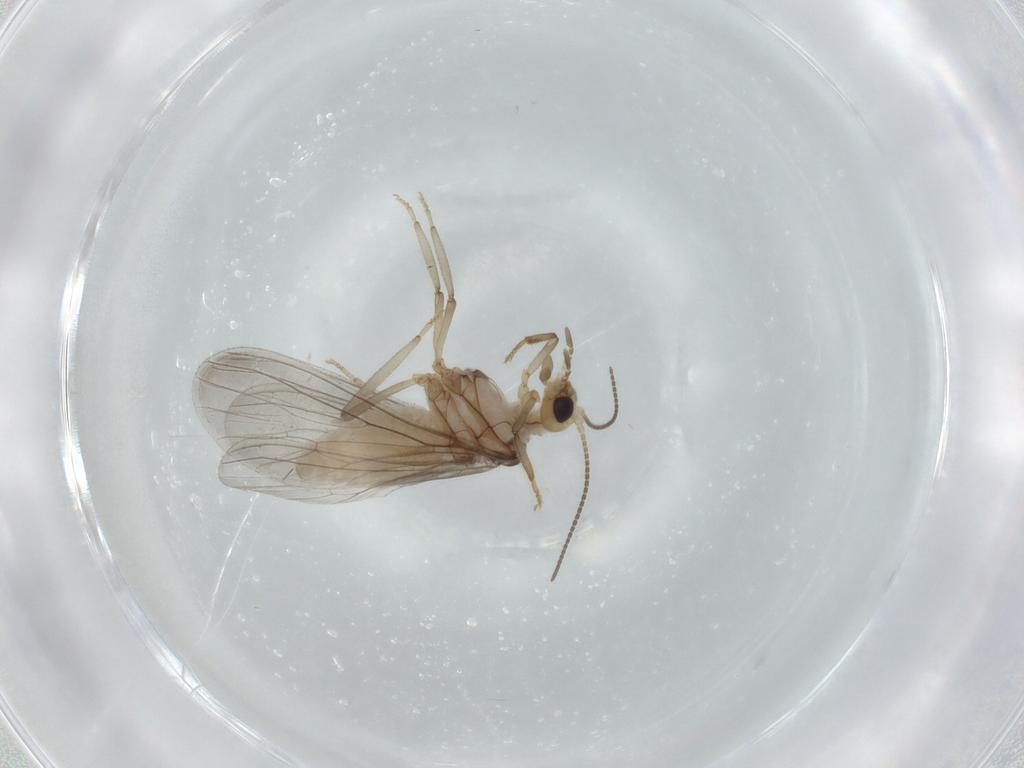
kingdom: Animalia
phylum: Arthropoda
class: Insecta
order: Neuroptera
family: Coniopterygidae
